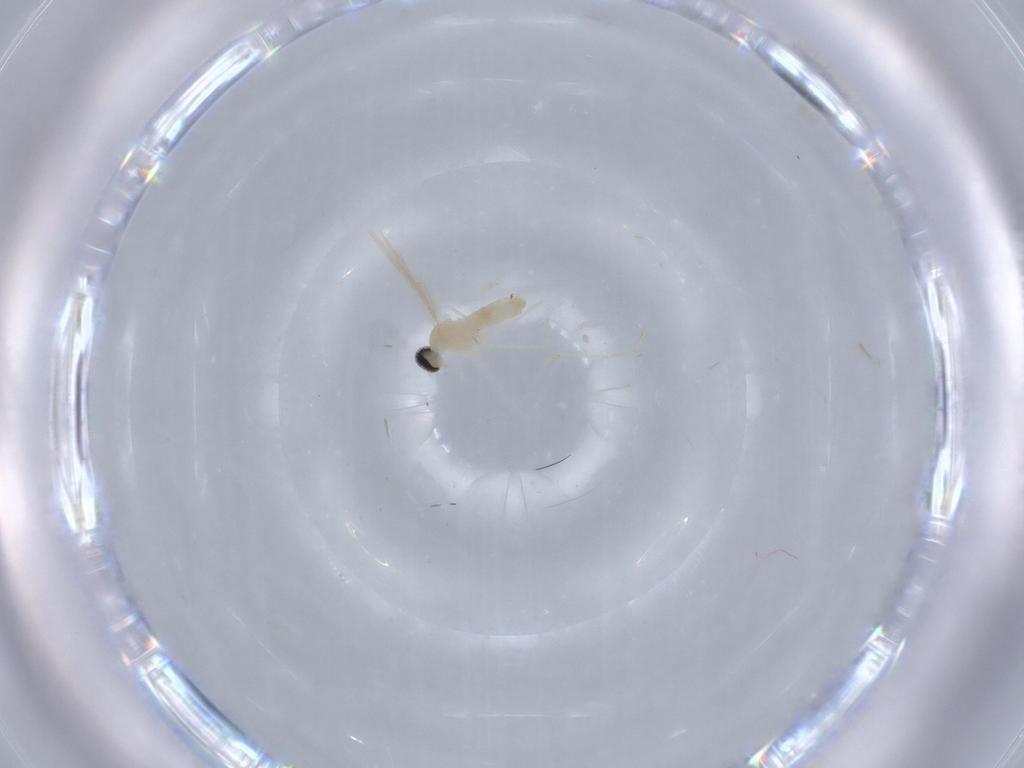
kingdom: Animalia
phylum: Arthropoda
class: Insecta
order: Diptera
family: Cecidomyiidae
